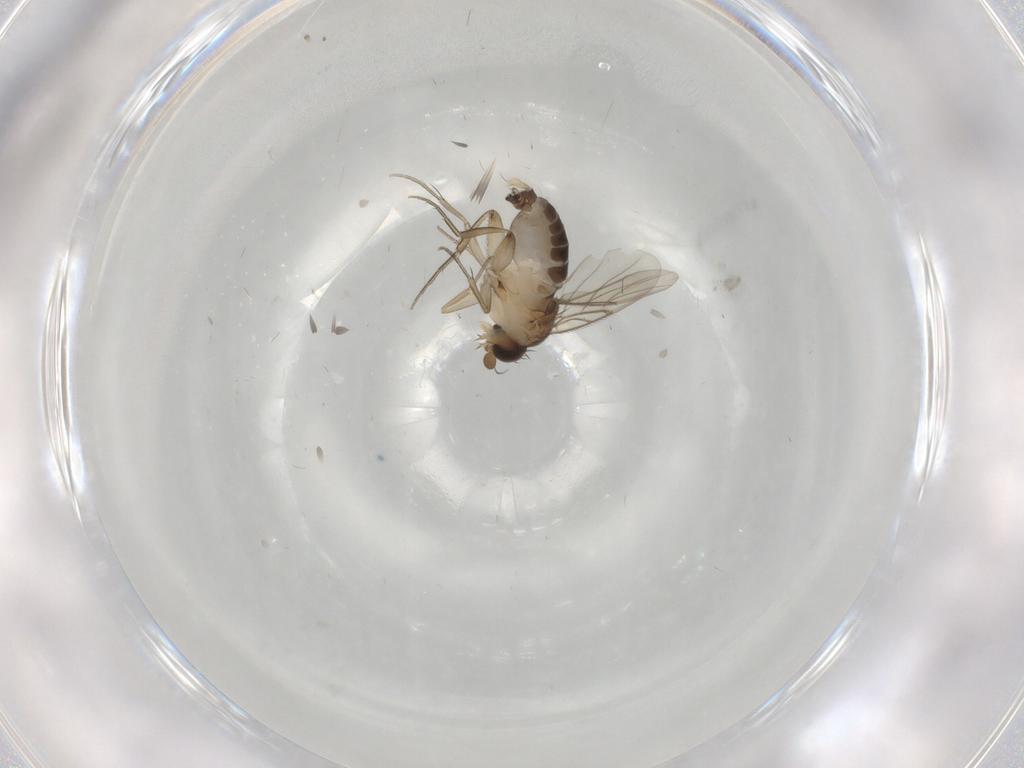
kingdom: Animalia
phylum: Arthropoda
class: Insecta
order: Diptera
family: Phoridae
